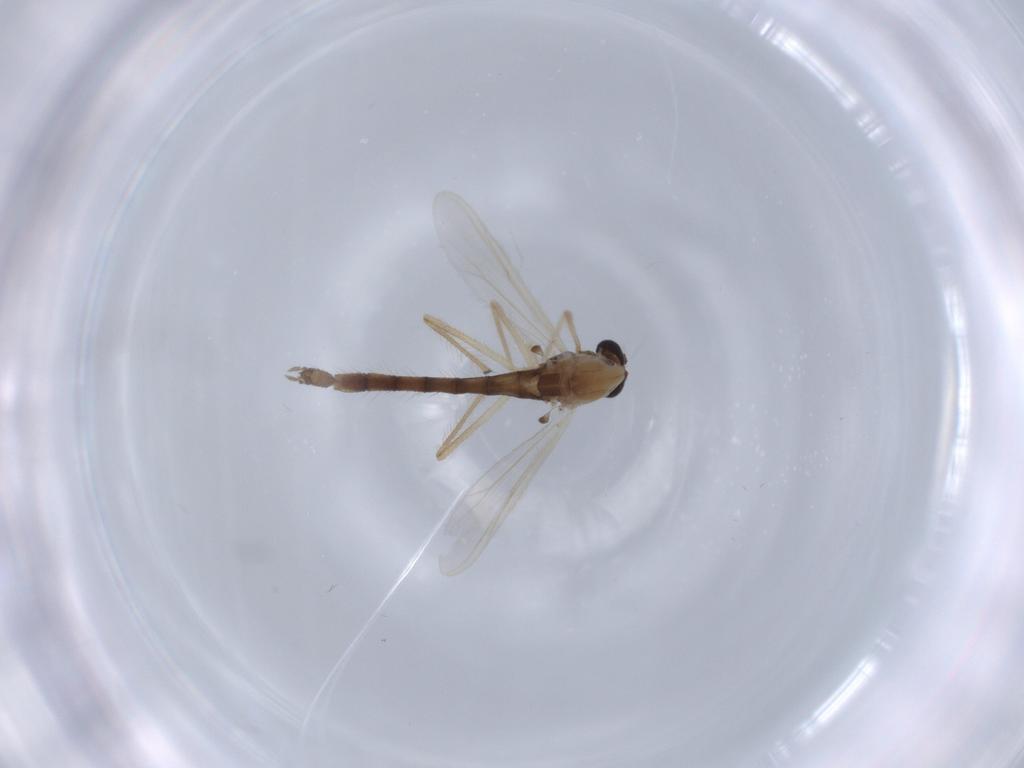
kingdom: Animalia
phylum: Arthropoda
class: Insecta
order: Diptera
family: Chironomidae
